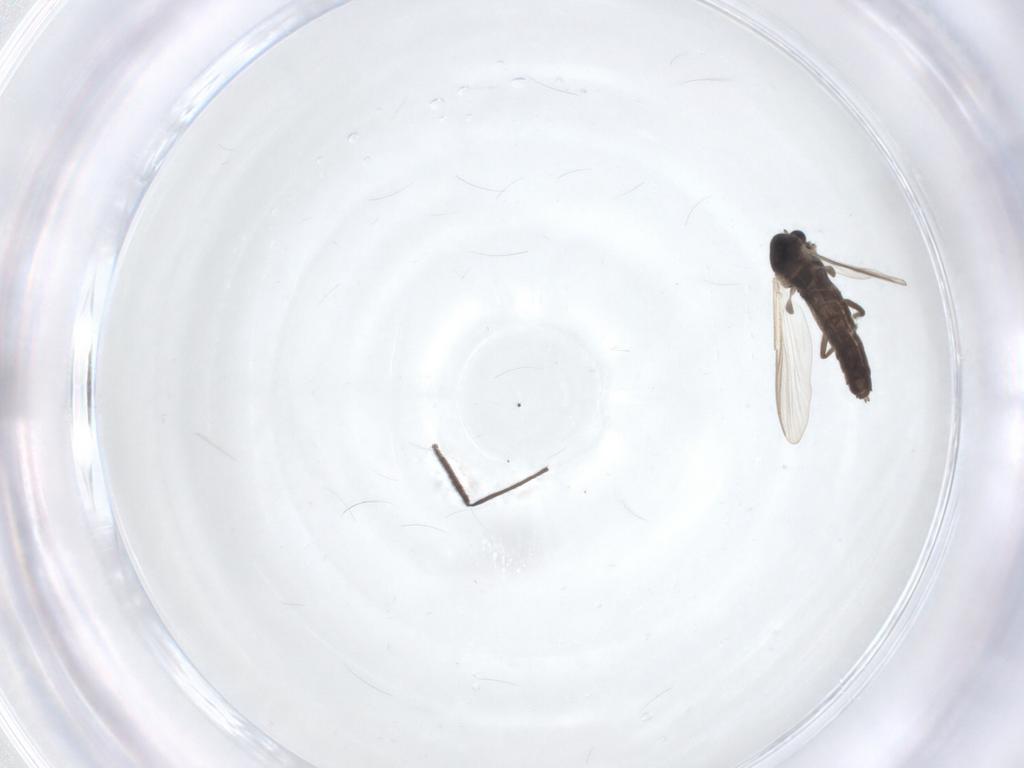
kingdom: Animalia
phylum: Arthropoda
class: Insecta
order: Diptera
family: Chironomidae
